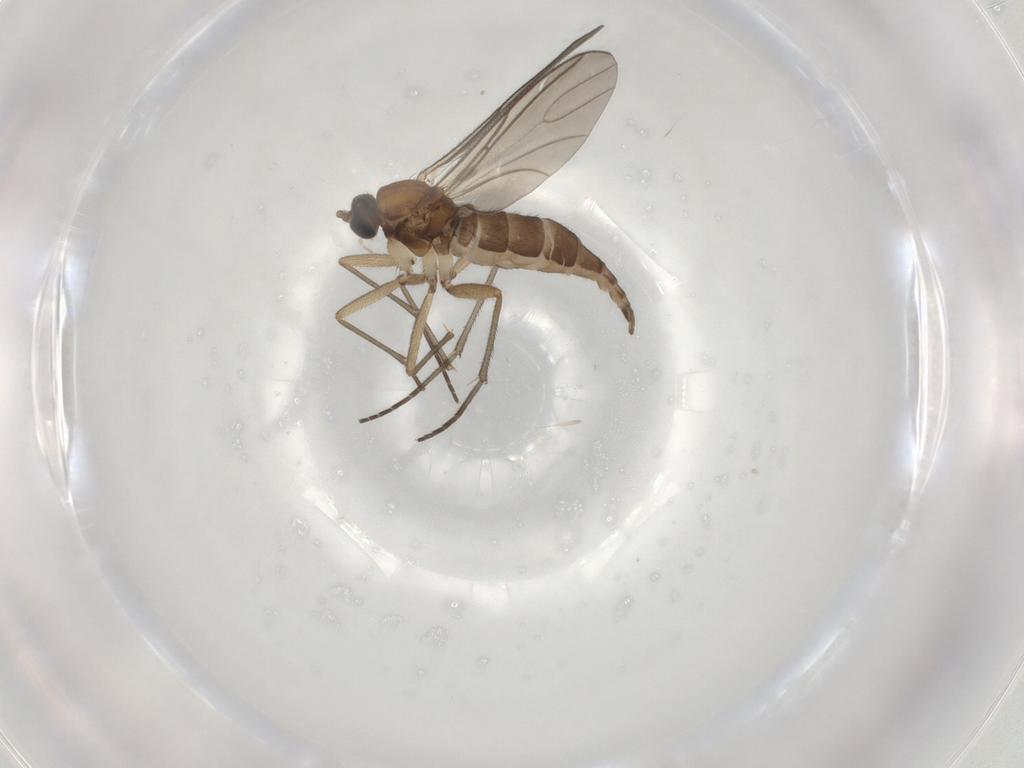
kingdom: Animalia
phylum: Arthropoda
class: Insecta
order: Diptera
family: Sciaridae
